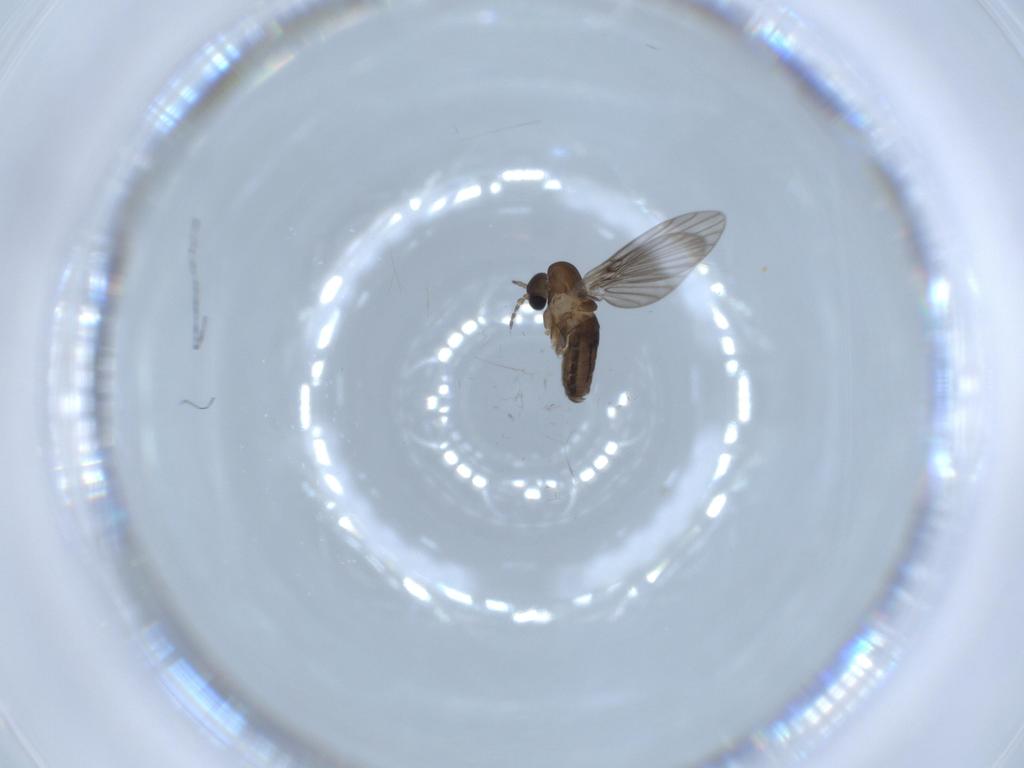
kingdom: Animalia
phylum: Arthropoda
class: Insecta
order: Diptera
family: Psychodidae
